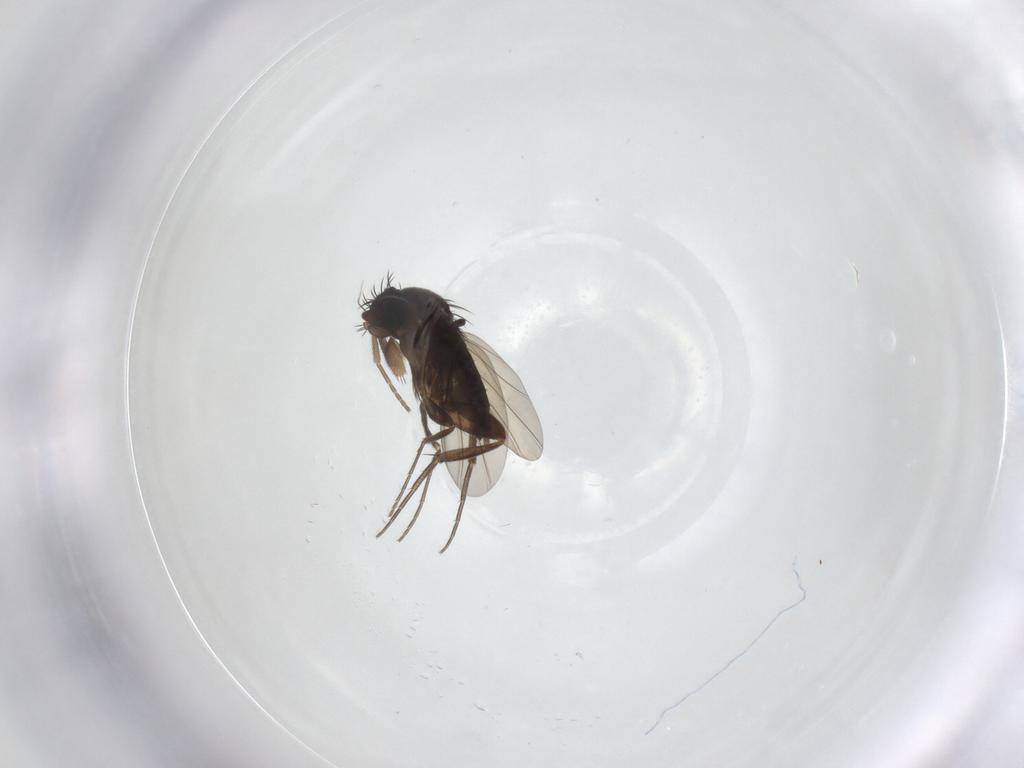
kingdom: Animalia
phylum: Arthropoda
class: Insecta
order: Diptera
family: Phoridae
